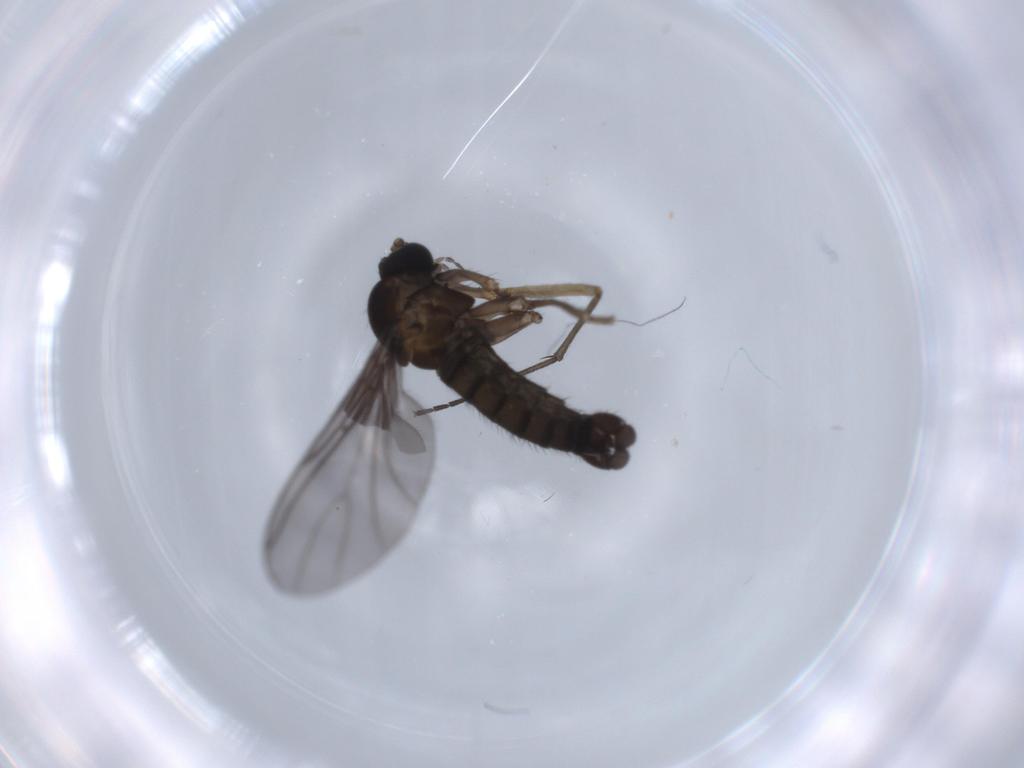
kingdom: Animalia
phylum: Arthropoda
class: Insecta
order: Diptera
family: Sciaridae
